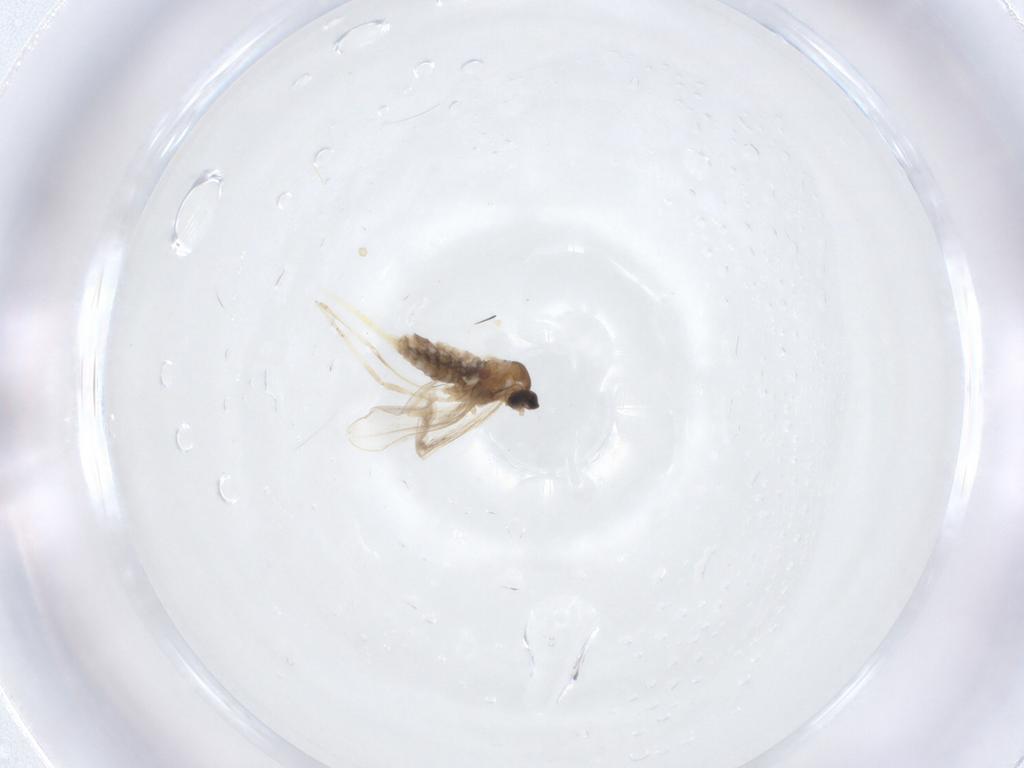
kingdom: Animalia
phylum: Arthropoda
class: Insecta
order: Diptera
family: Cecidomyiidae
